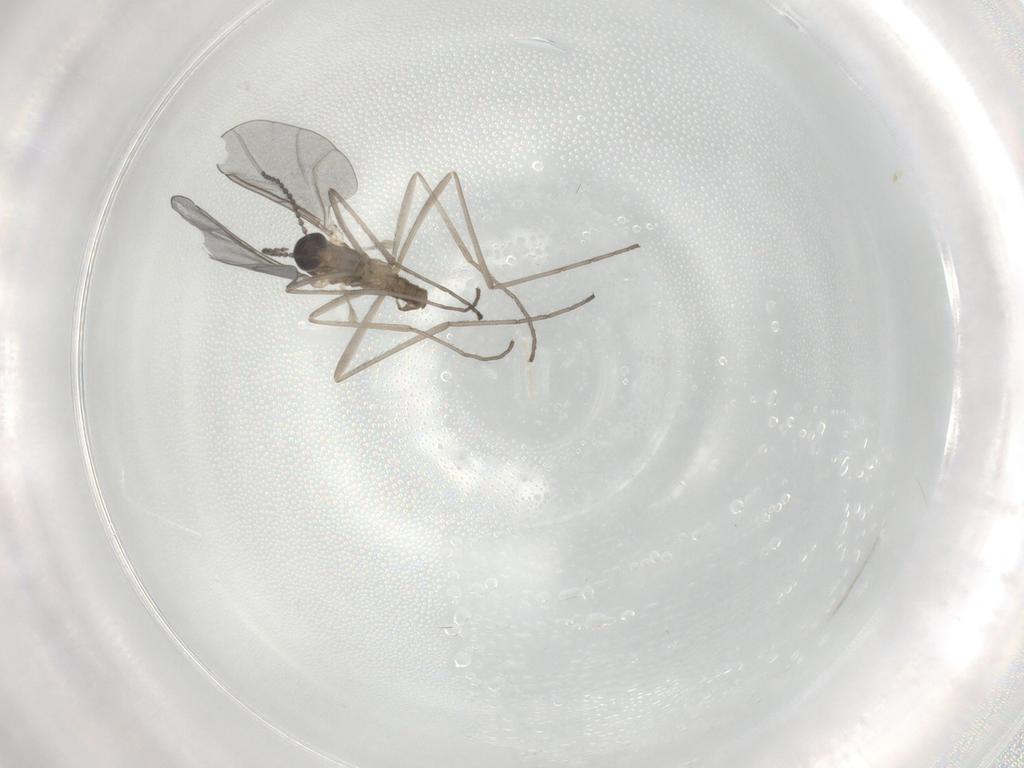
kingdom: Animalia
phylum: Arthropoda
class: Insecta
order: Diptera
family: Cecidomyiidae
